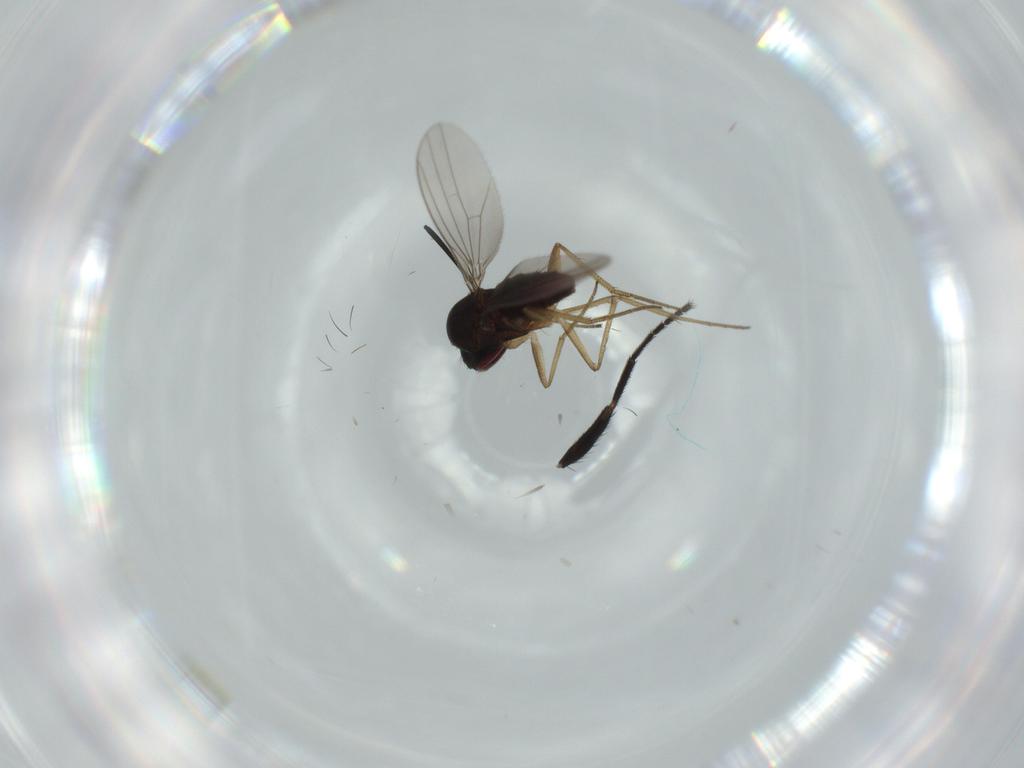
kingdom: Animalia
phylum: Arthropoda
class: Insecta
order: Diptera
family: Dolichopodidae
